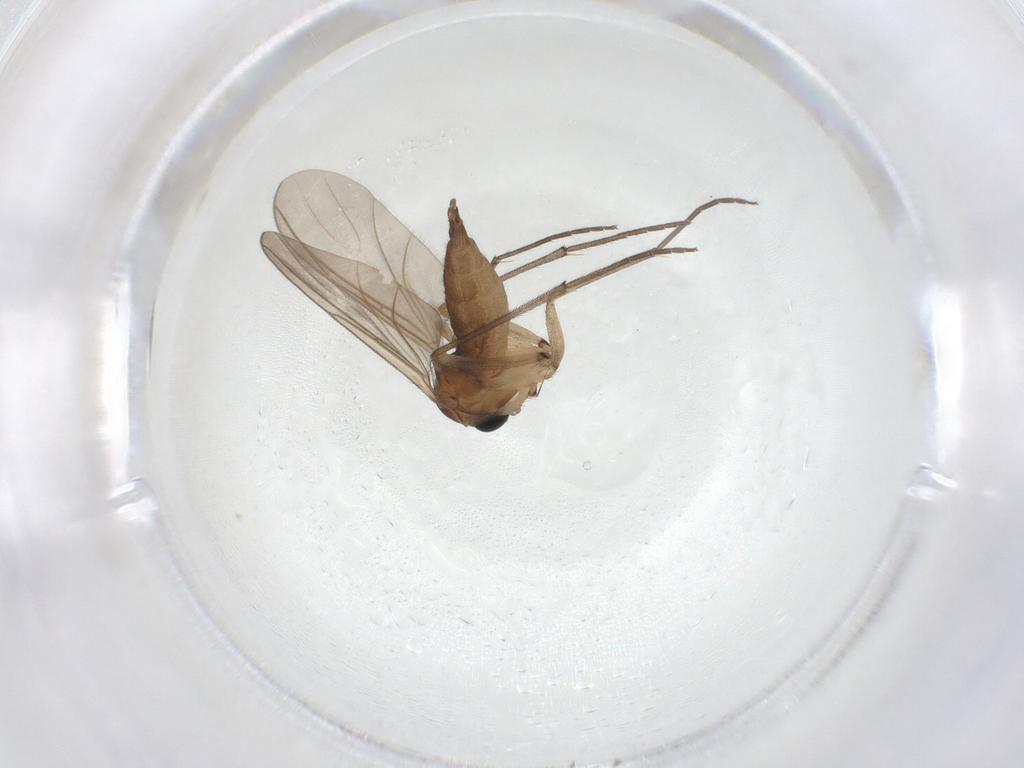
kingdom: Animalia
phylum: Arthropoda
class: Insecta
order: Diptera
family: Sciaridae
